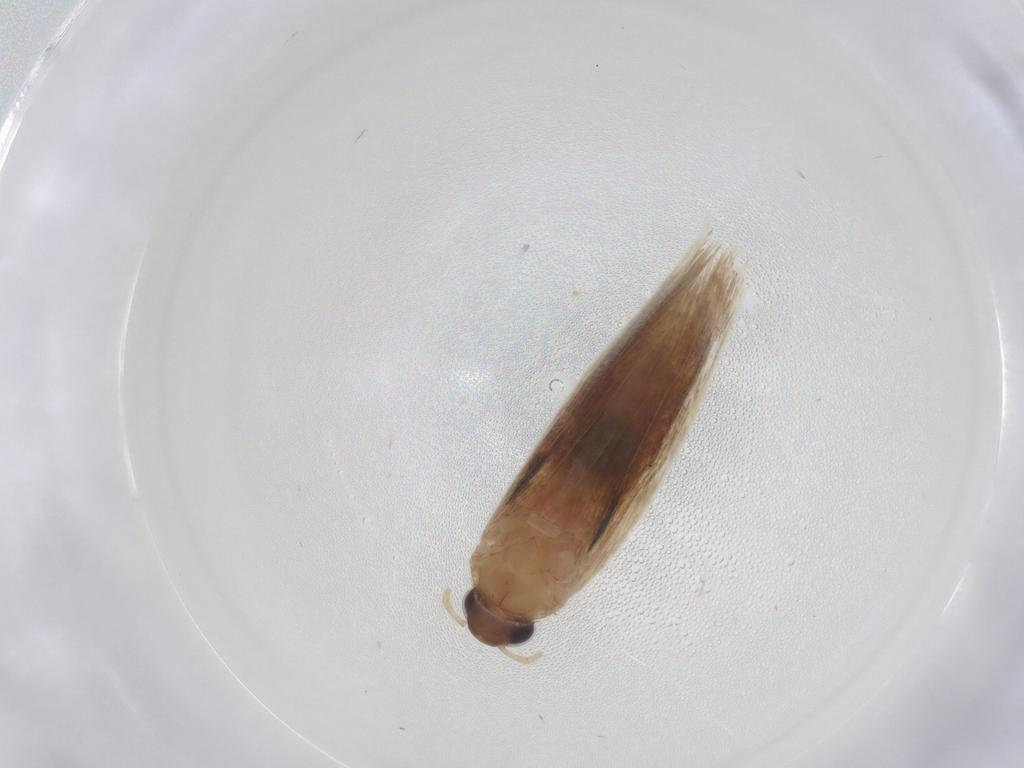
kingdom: Animalia
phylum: Arthropoda
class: Insecta
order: Lepidoptera
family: Gelechiidae
